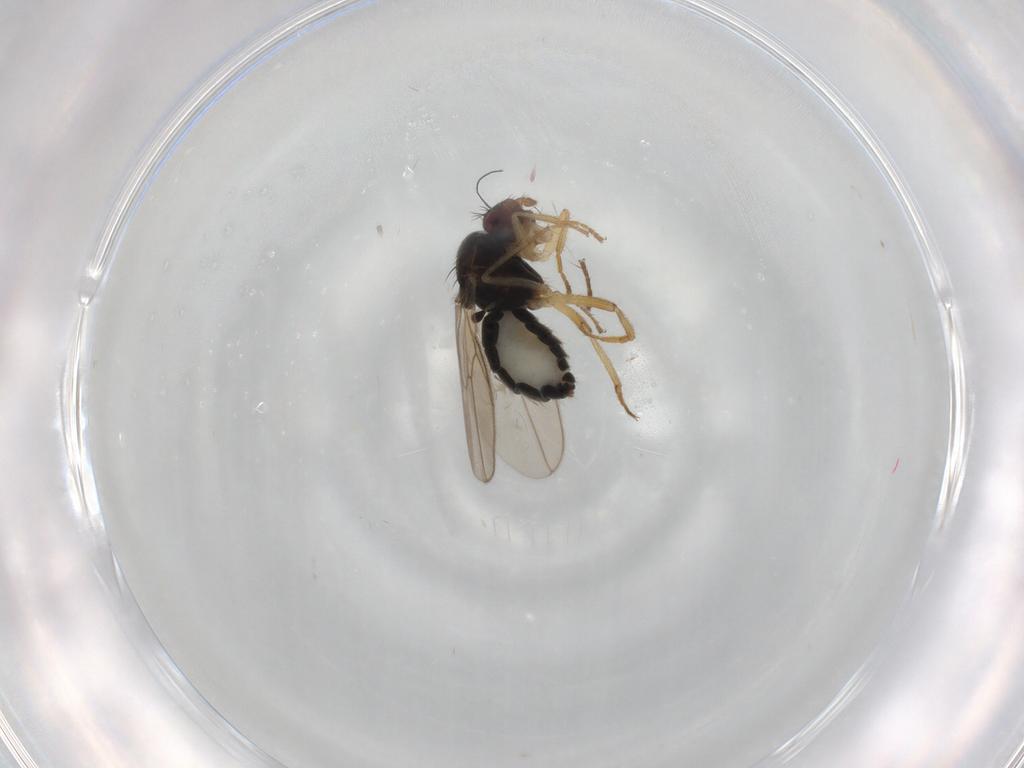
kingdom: Animalia
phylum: Arthropoda
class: Insecta
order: Diptera
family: Sphaeroceridae
